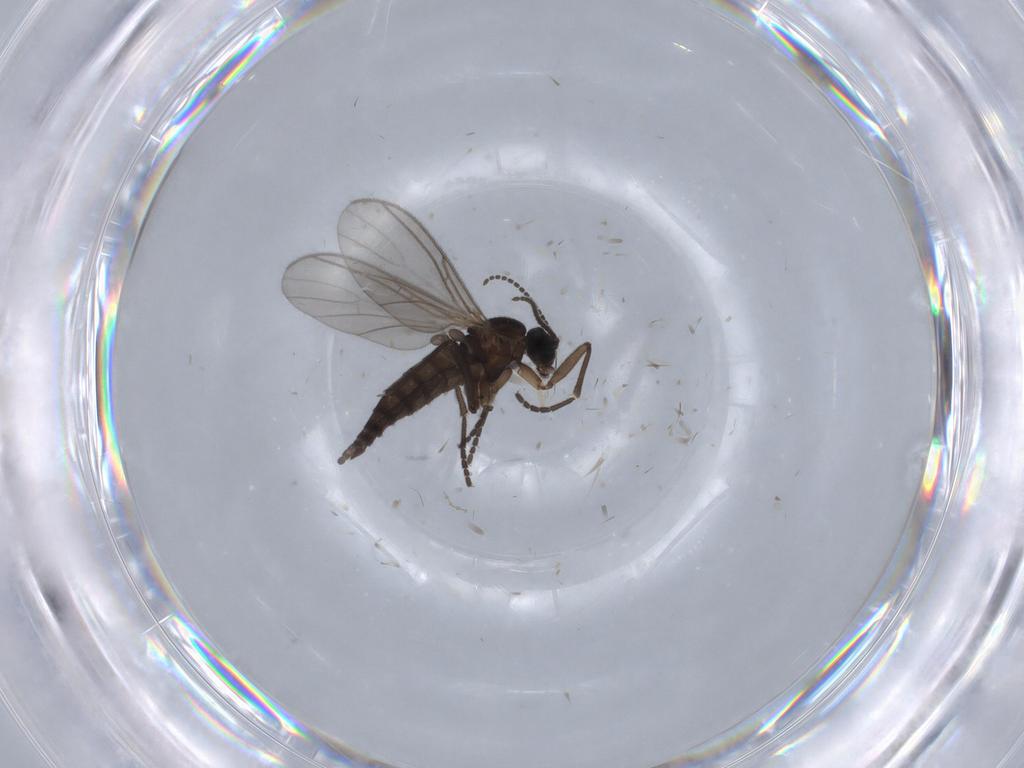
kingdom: Animalia
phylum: Arthropoda
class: Insecta
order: Diptera
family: Sciaridae
